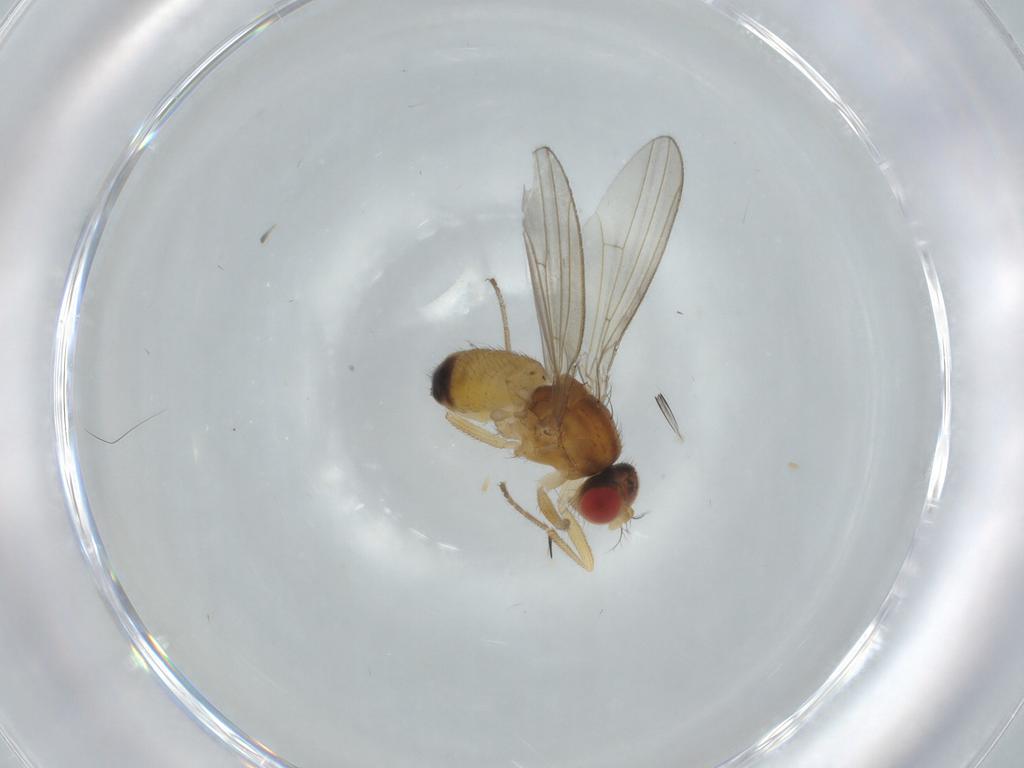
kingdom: Animalia
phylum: Arthropoda
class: Insecta
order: Diptera
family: Drosophilidae
